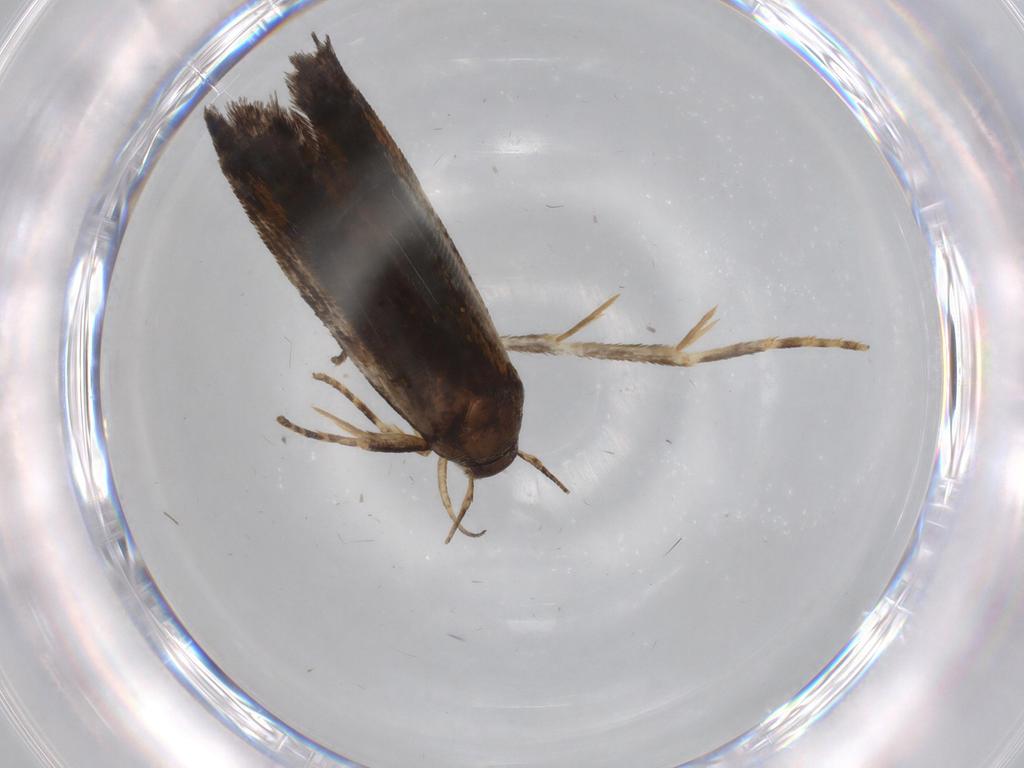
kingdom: Animalia
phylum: Arthropoda
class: Insecta
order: Lepidoptera
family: Gelechiidae
